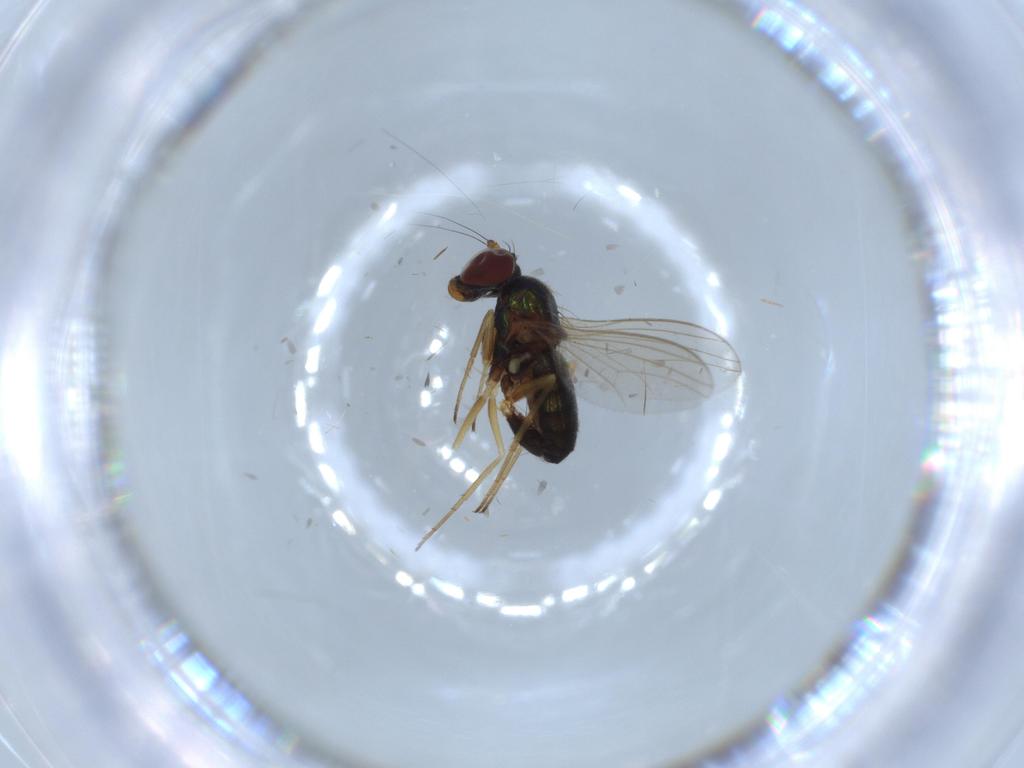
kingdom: Animalia
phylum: Arthropoda
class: Insecta
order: Diptera
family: Dolichopodidae
